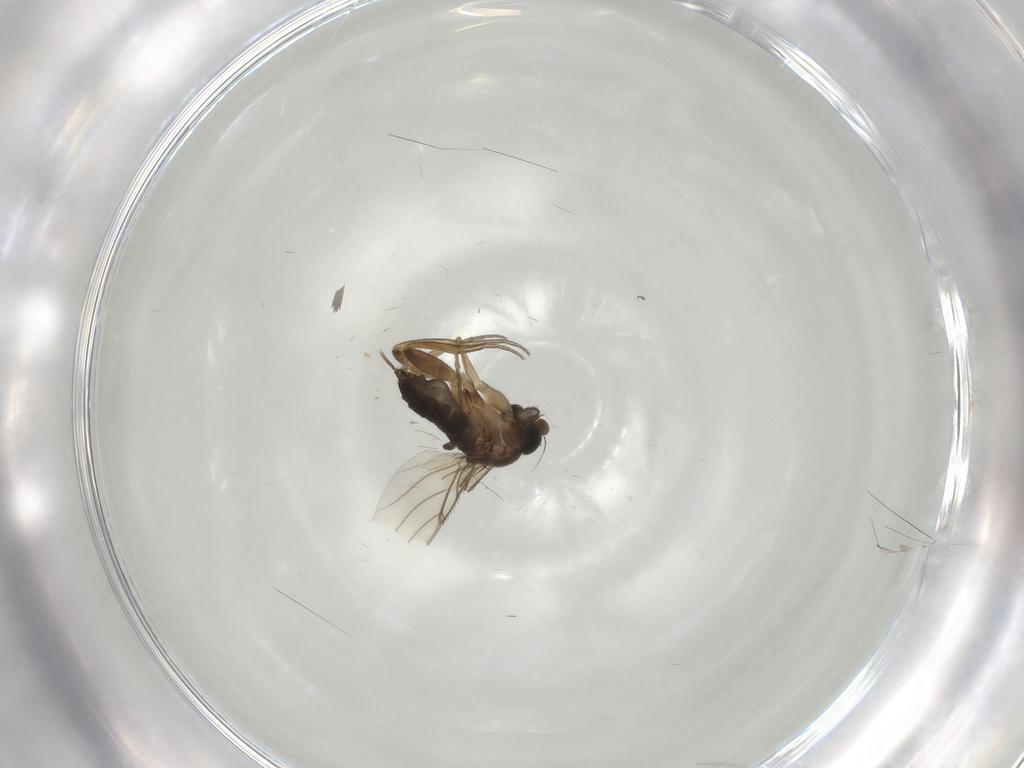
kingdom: Animalia
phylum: Arthropoda
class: Insecta
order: Diptera
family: Phoridae
